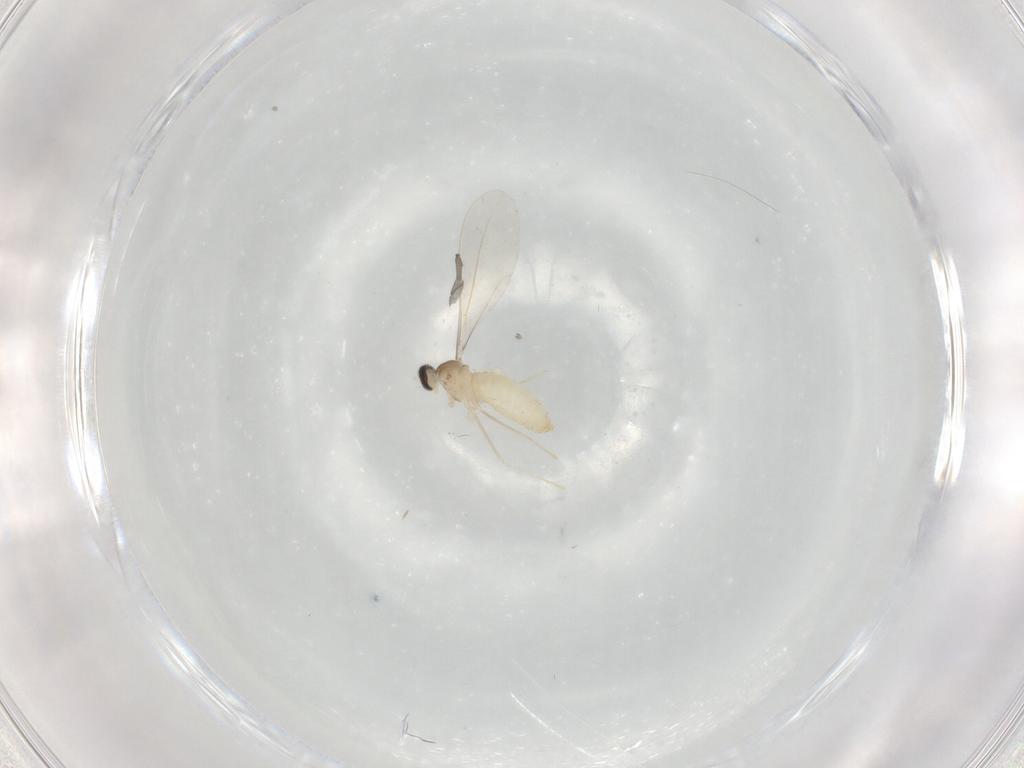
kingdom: Animalia
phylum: Arthropoda
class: Insecta
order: Diptera
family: Cecidomyiidae
